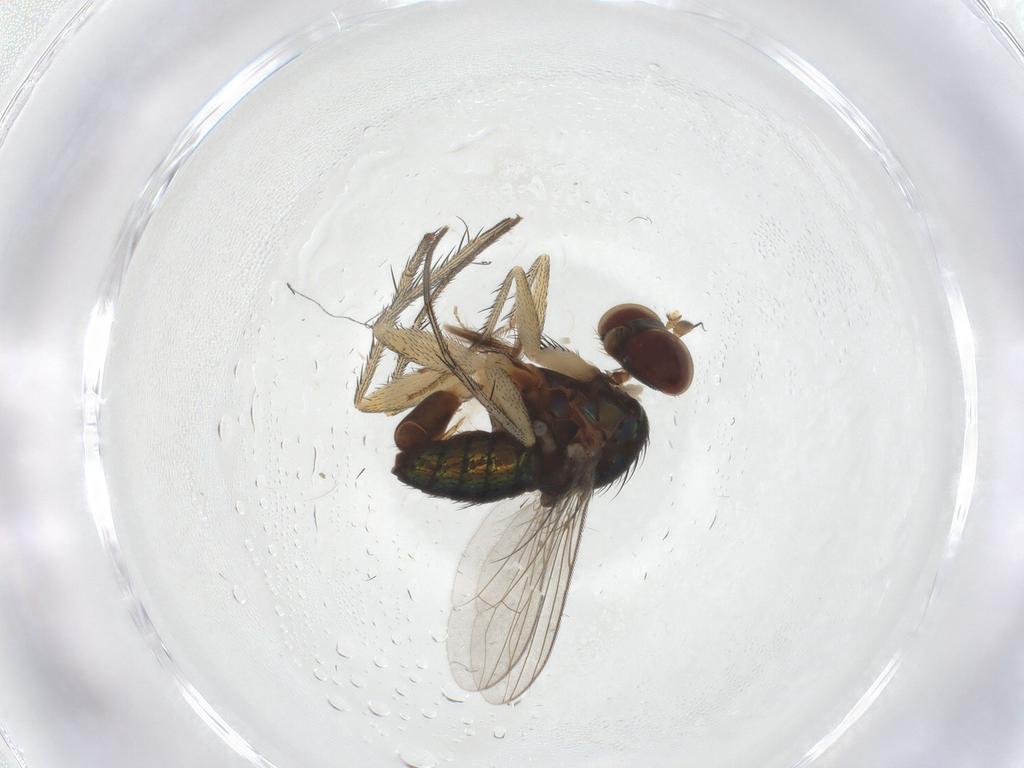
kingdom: Animalia
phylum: Arthropoda
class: Insecta
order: Diptera
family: Dolichopodidae
